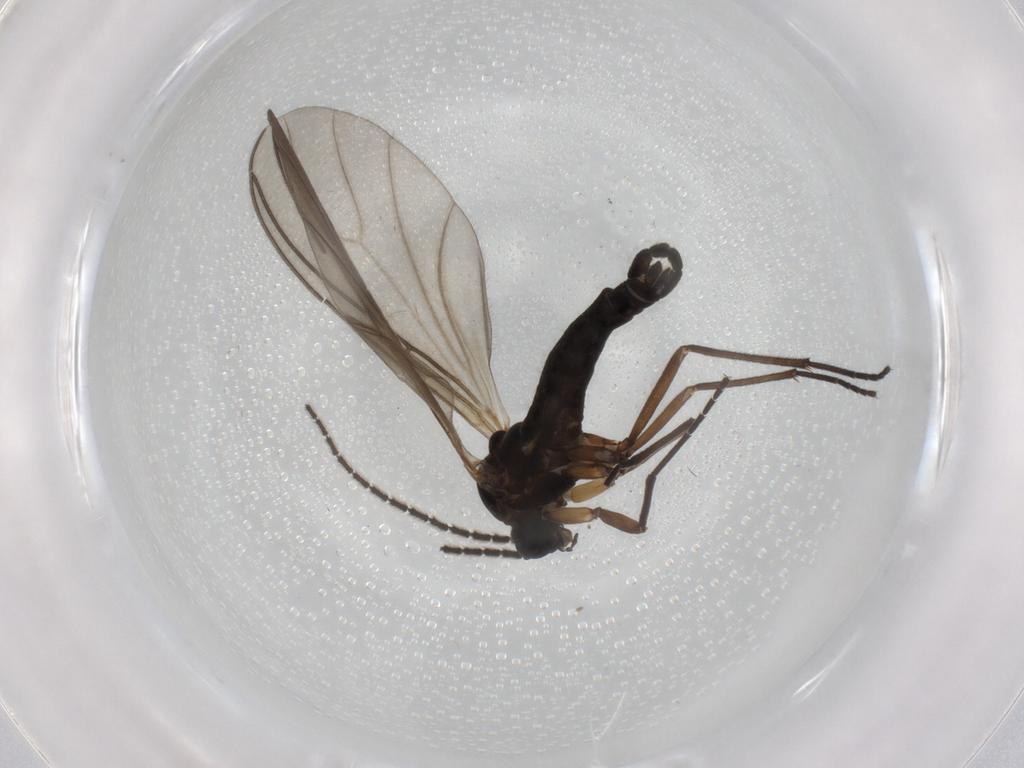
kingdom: Animalia
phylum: Arthropoda
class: Insecta
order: Diptera
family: Sciaridae
